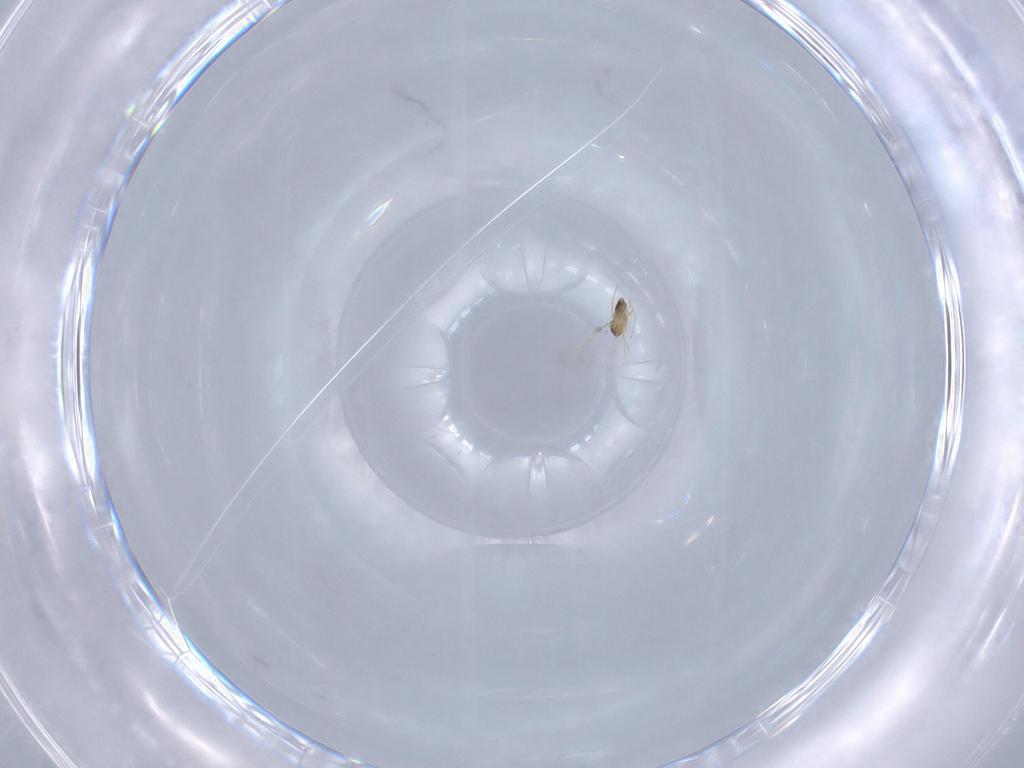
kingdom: Animalia
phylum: Arthropoda
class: Insecta
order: Hymenoptera
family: Mymaridae
